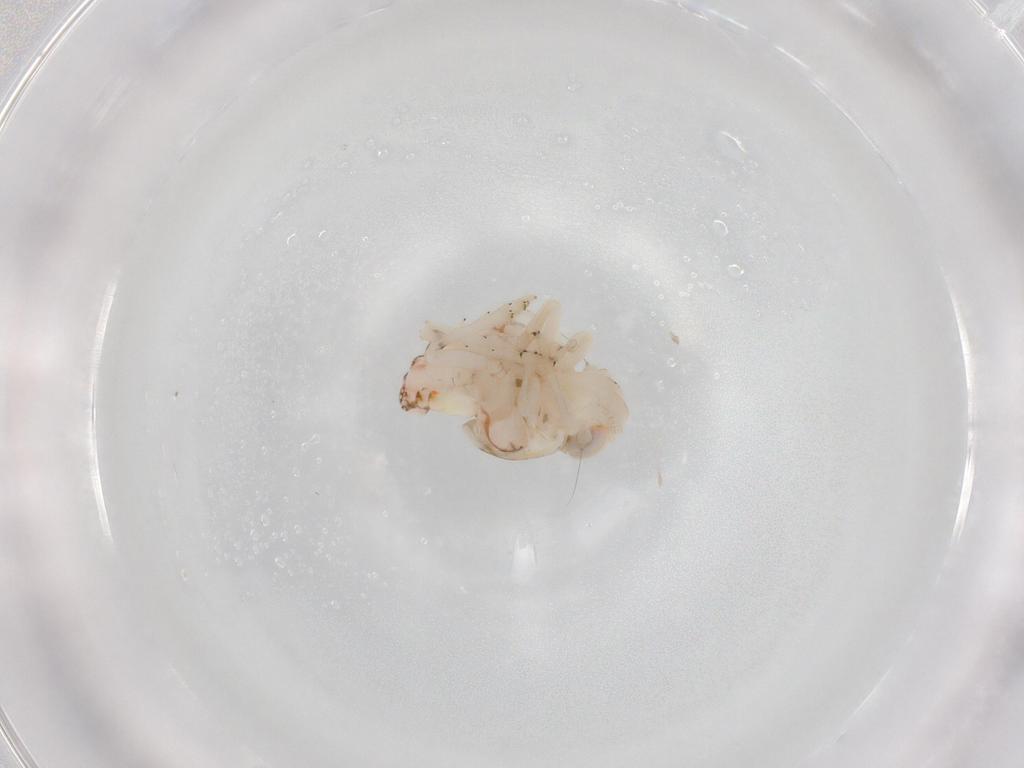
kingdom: Animalia
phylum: Arthropoda
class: Insecta
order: Hemiptera
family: Nogodinidae
